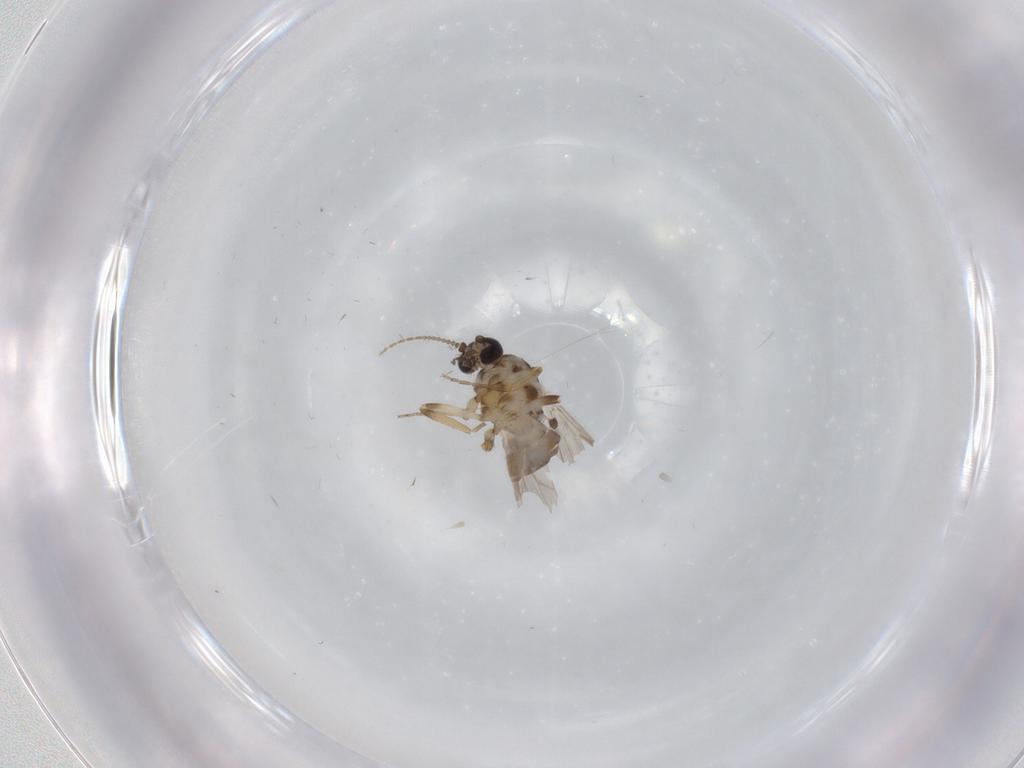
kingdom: Animalia
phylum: Arthropoda
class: Insecta
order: Diptera
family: Ceratopogonidae
